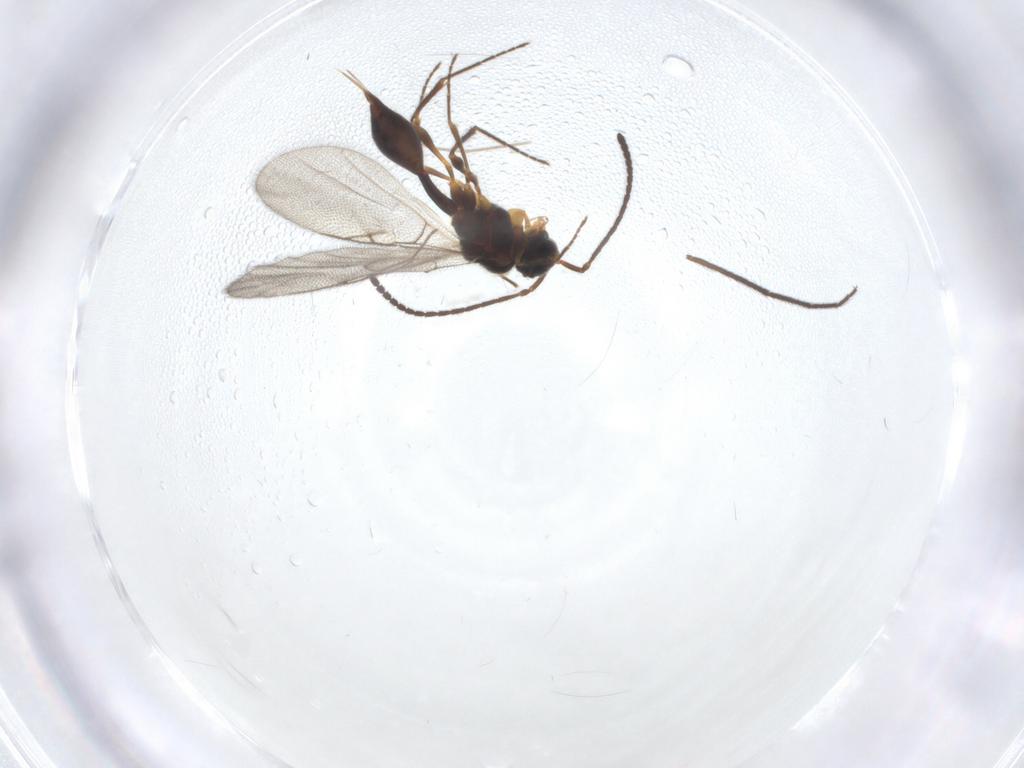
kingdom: Animalia
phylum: Arthropoda
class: Insecta
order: Hymenoptera
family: Diapriidae
